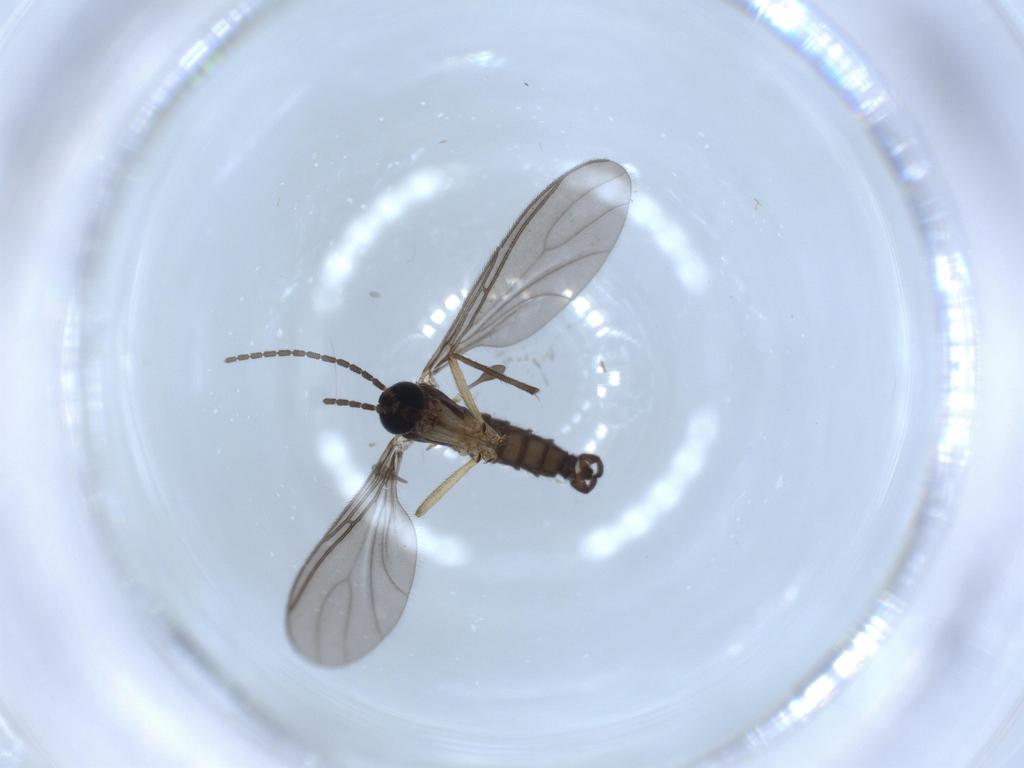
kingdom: Animalia
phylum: Arthropoda
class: Insecta
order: Diptera
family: Sciaridae
